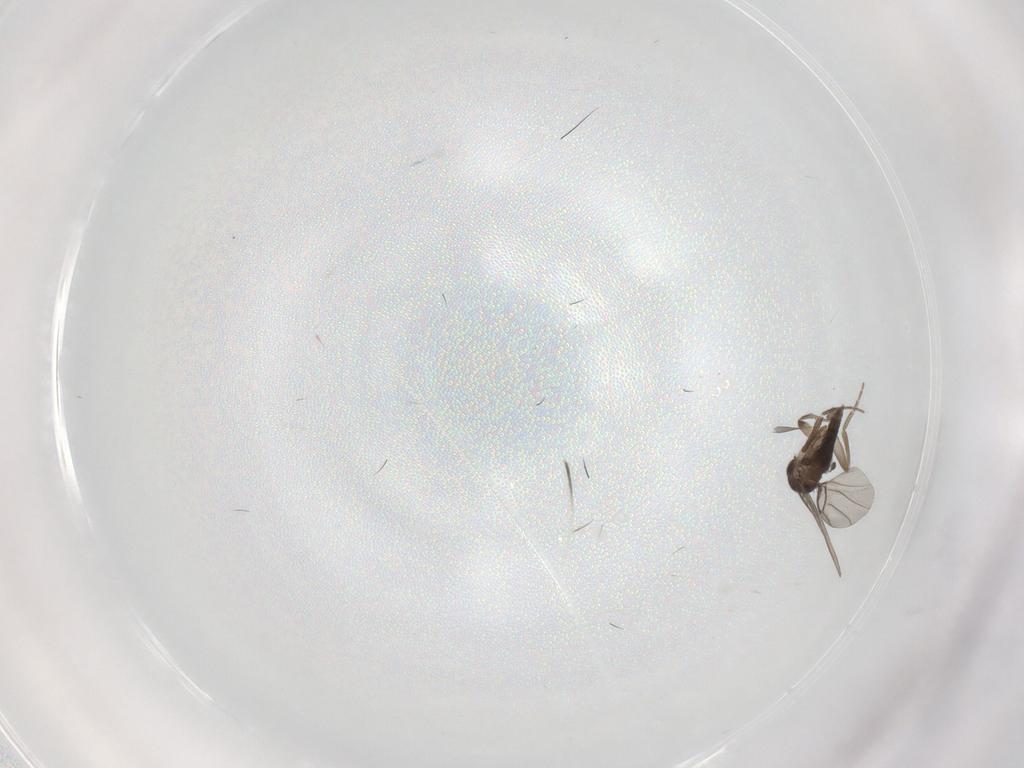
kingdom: Animalia
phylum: Arthropoda
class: Insecta
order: Diptera
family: Phoridae
